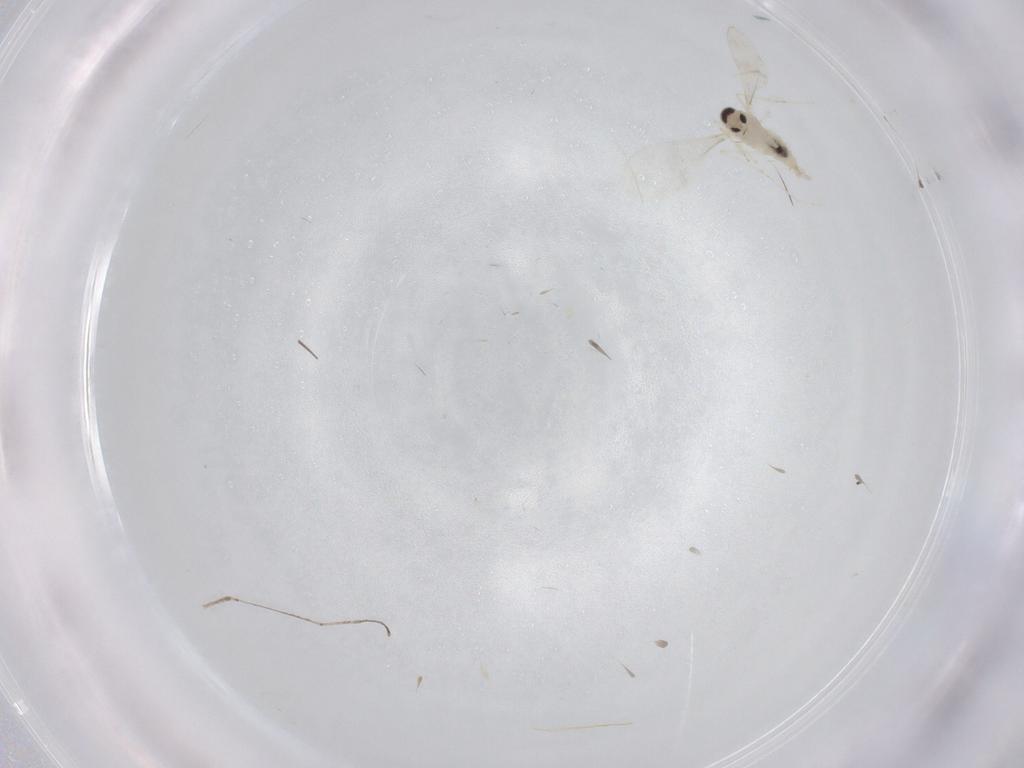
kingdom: Animalia
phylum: Arthropoda
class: Insecta
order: Diptera
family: Cecidomyiidae
